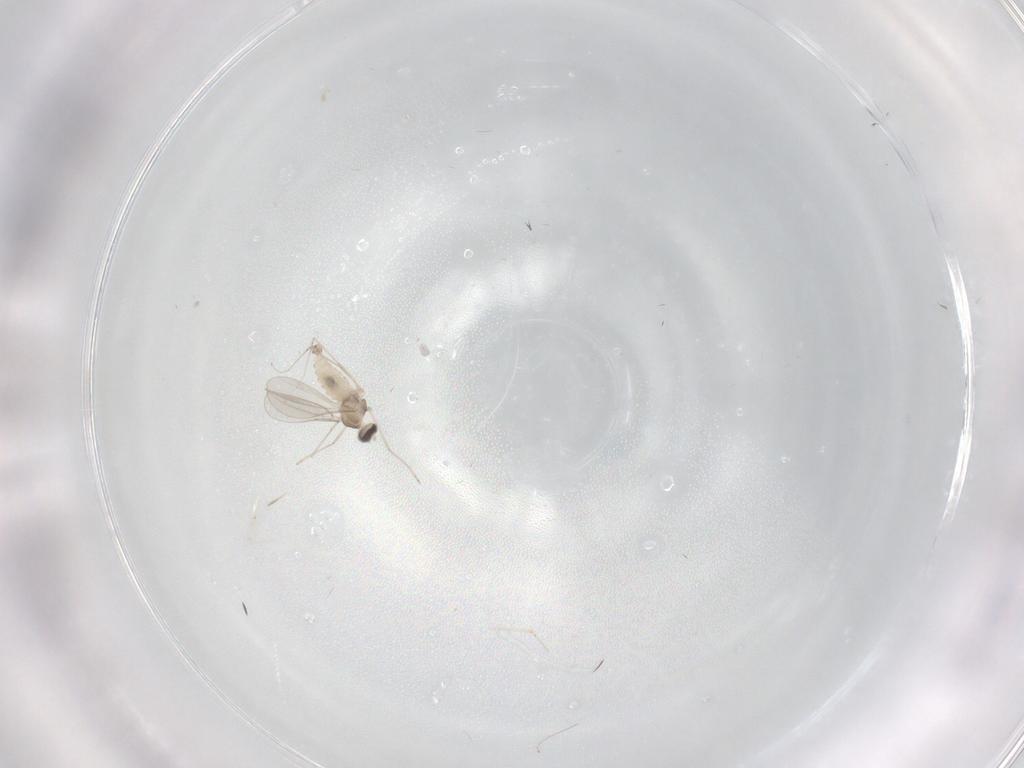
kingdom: Animalia
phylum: Arthropoda
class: Insecta
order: Diptera
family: Cecidomyiidae
